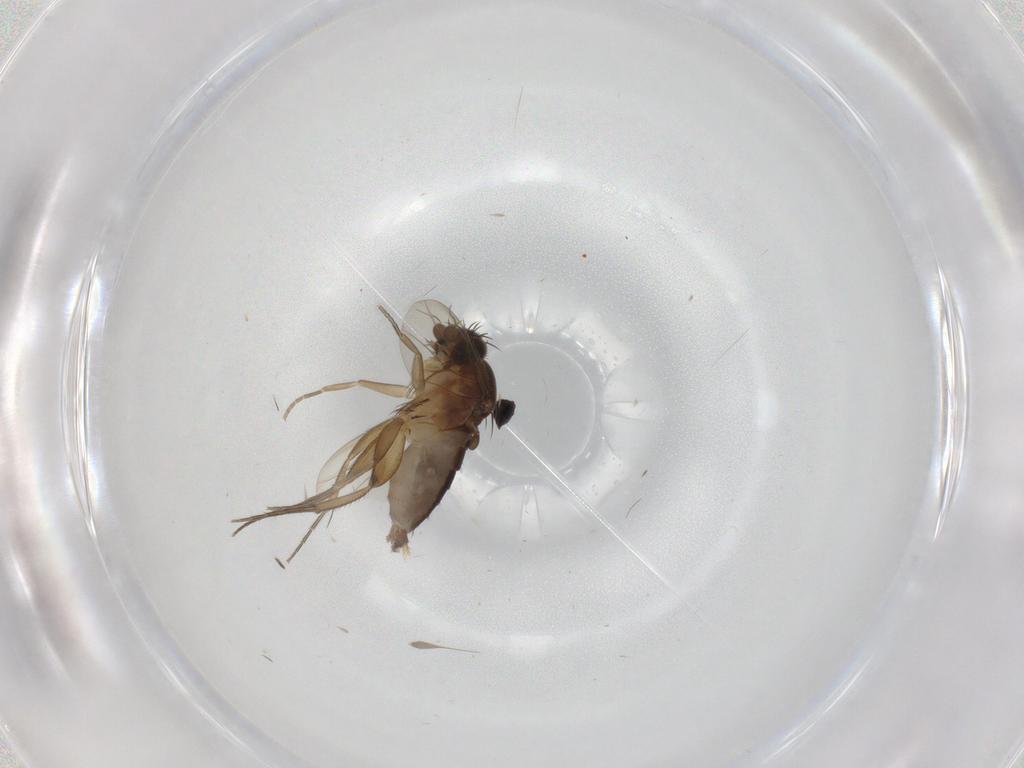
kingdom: Animalia
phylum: Arthropoda
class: Insecta
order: Diptera
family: Phoridae
